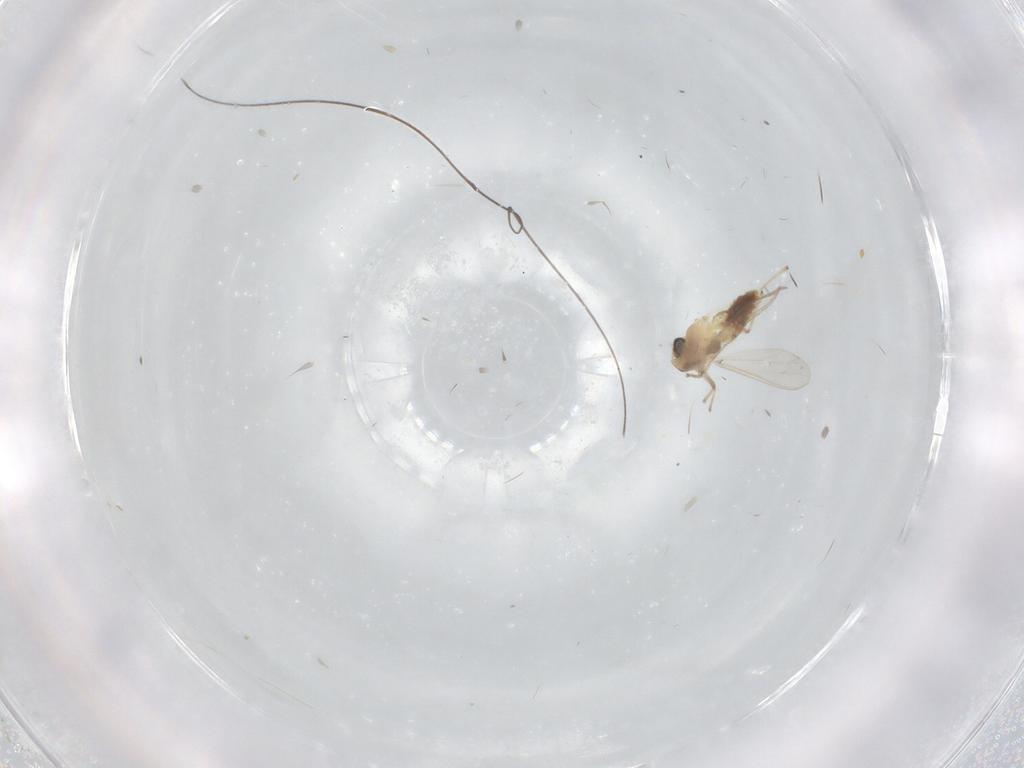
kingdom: Animalia
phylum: Arthropoda
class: Insecta
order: Diptera
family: Chironomidae
